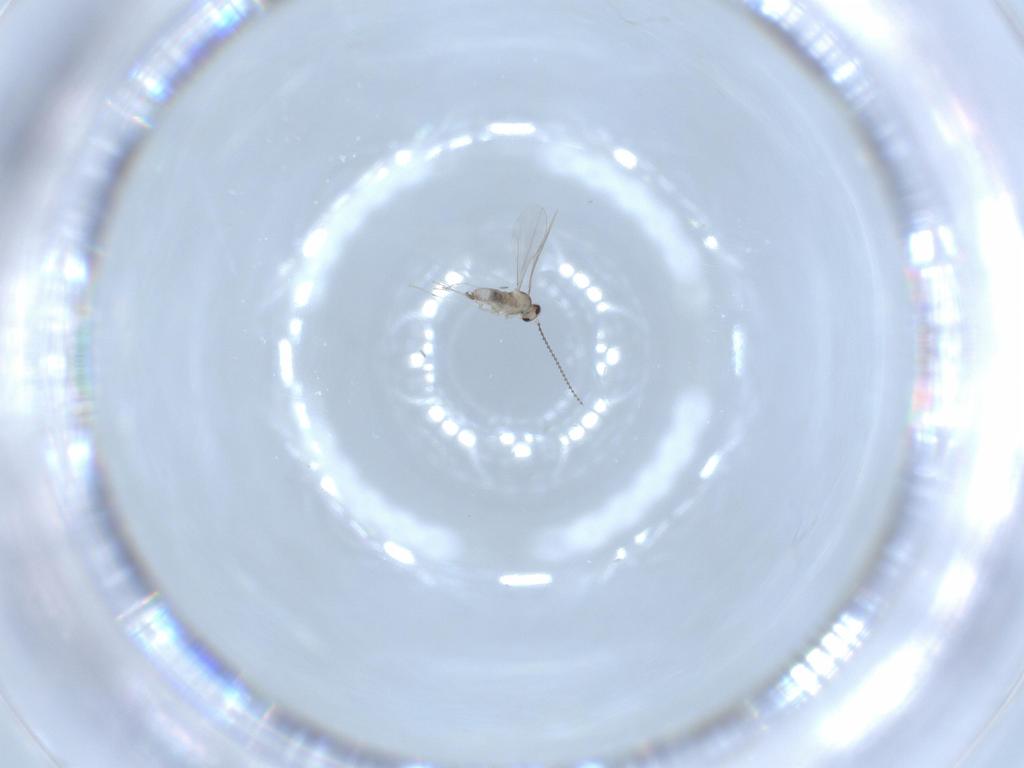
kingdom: Animalia
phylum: Arthropoda
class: Insecta
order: Diptera
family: Cecidomyiidae
